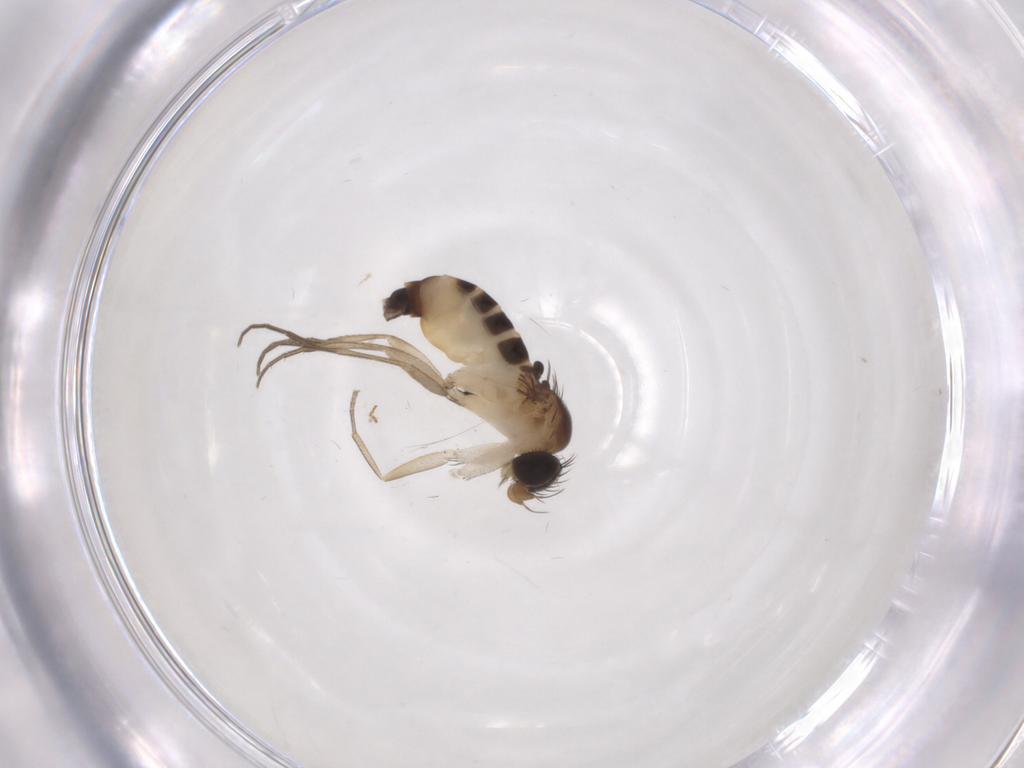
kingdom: Animalia
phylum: Arthropoda
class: Insecta
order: Diptera
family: Phoridae
